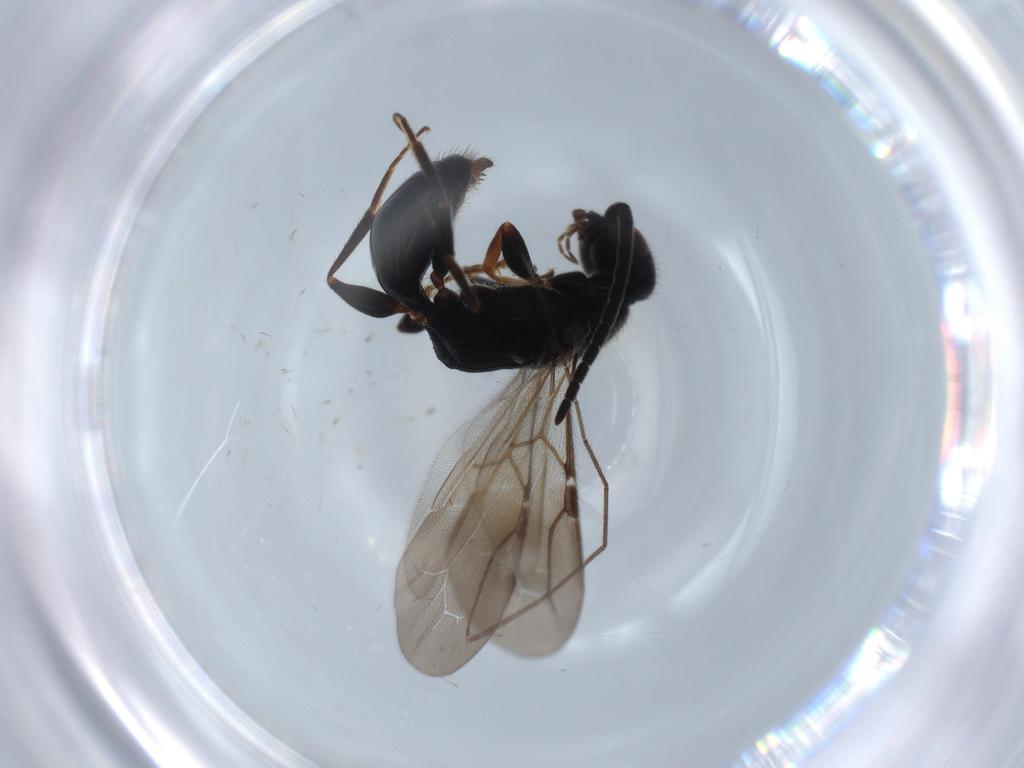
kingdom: Animalia
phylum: Arthropoda
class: Insecta
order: Hymenoptera
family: Bethylidae
